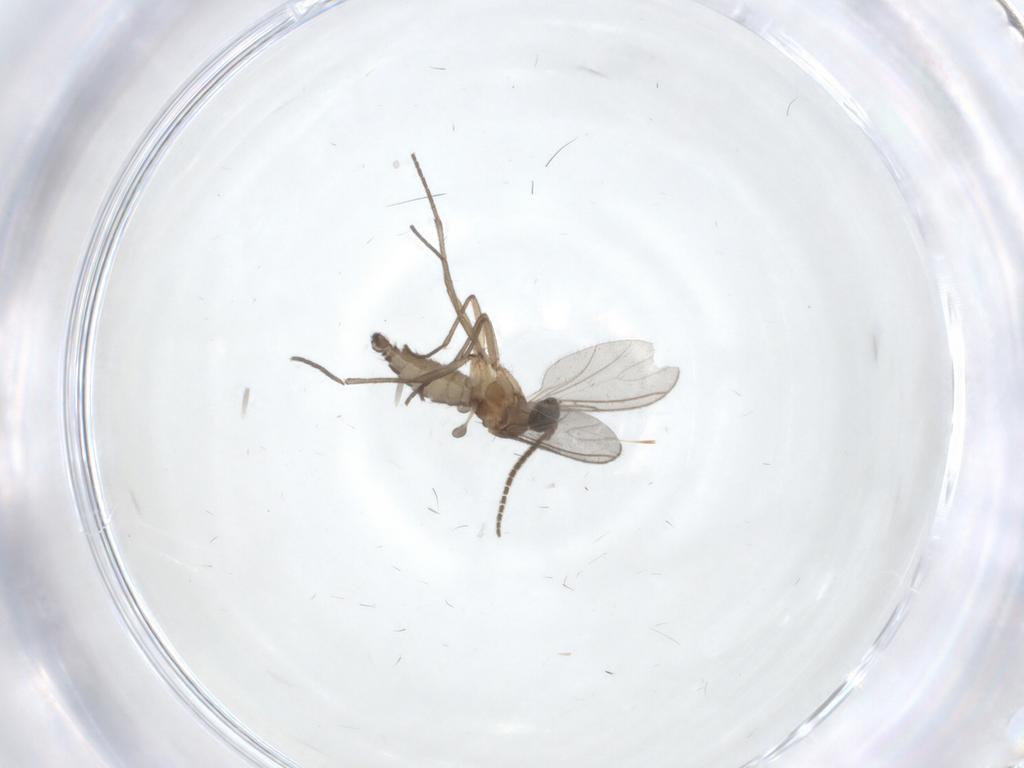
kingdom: Animalia
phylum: Arthropoda
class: Insecta
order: Diptera
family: Sciaridae
